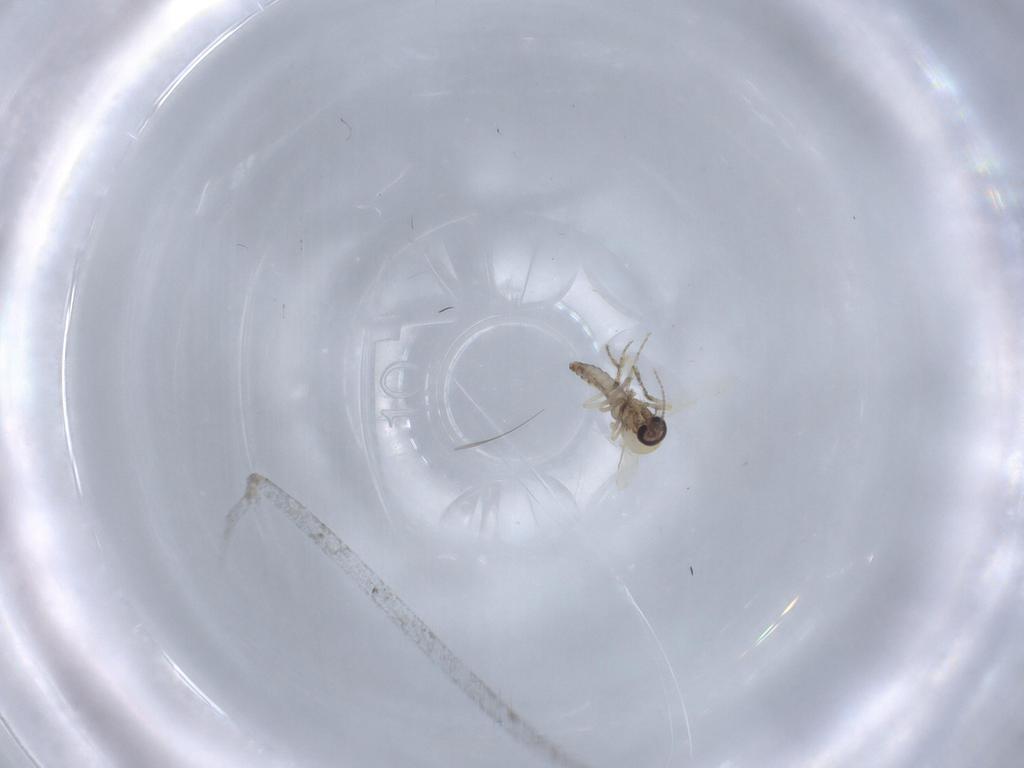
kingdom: Animalia
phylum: Arthropoda
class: Insecta
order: Diptera
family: Ceratopogonidae
